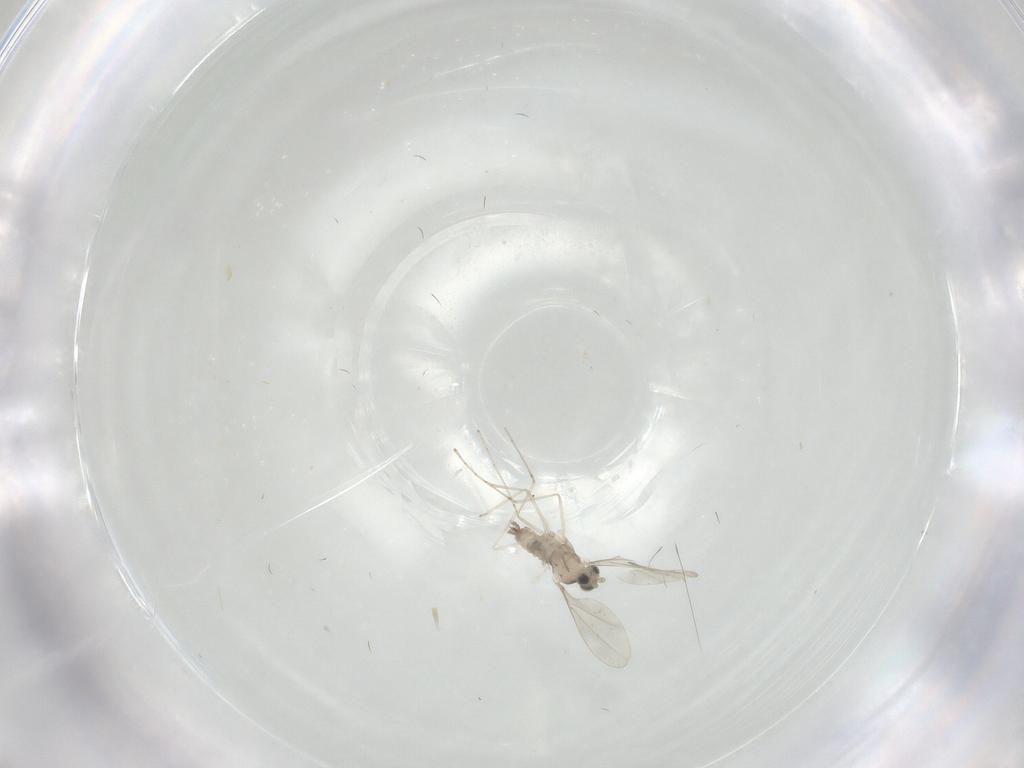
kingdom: Animalia
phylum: Arthropoda
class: Insecta
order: Diptera
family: Cecidomyiidae
